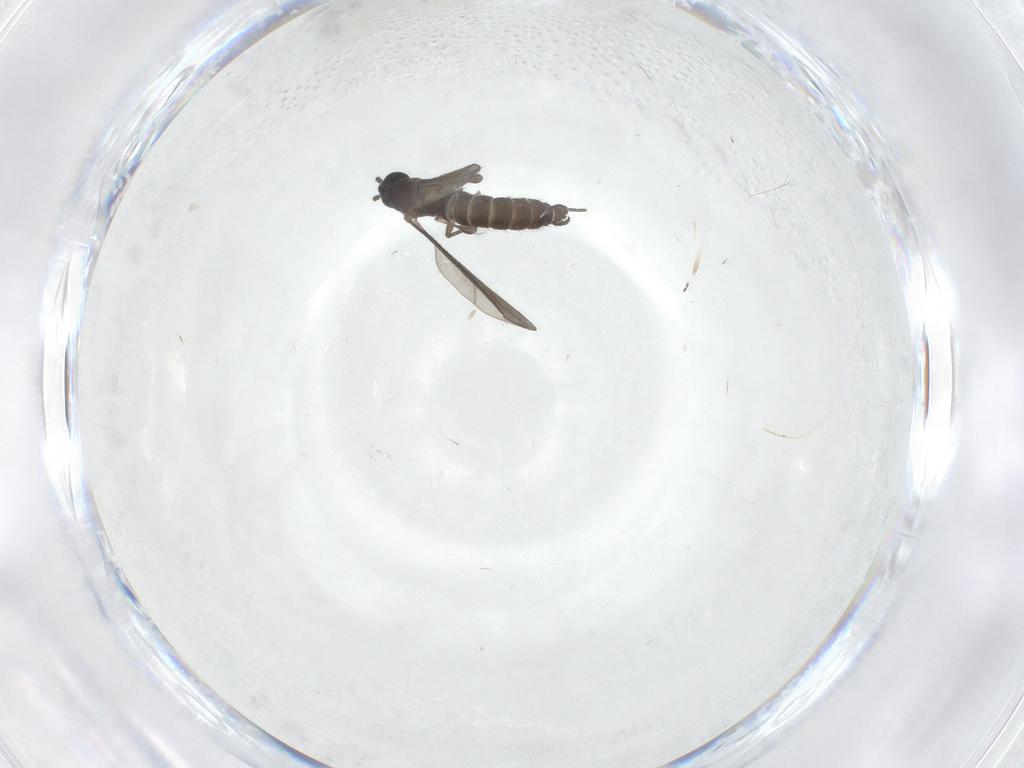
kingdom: Animalia
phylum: Arthropoda
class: Insecta
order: Diptera
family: Sciaridae
